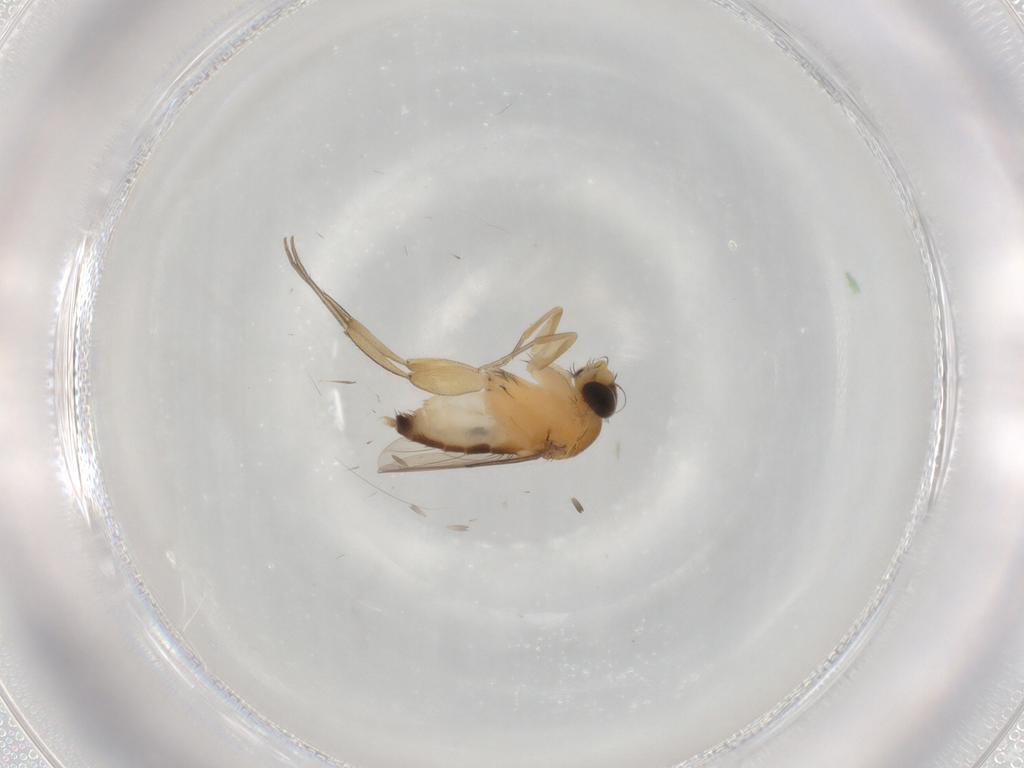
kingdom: Animalia
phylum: Arthropoda
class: Insecta
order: Diptera
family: Phoridae
